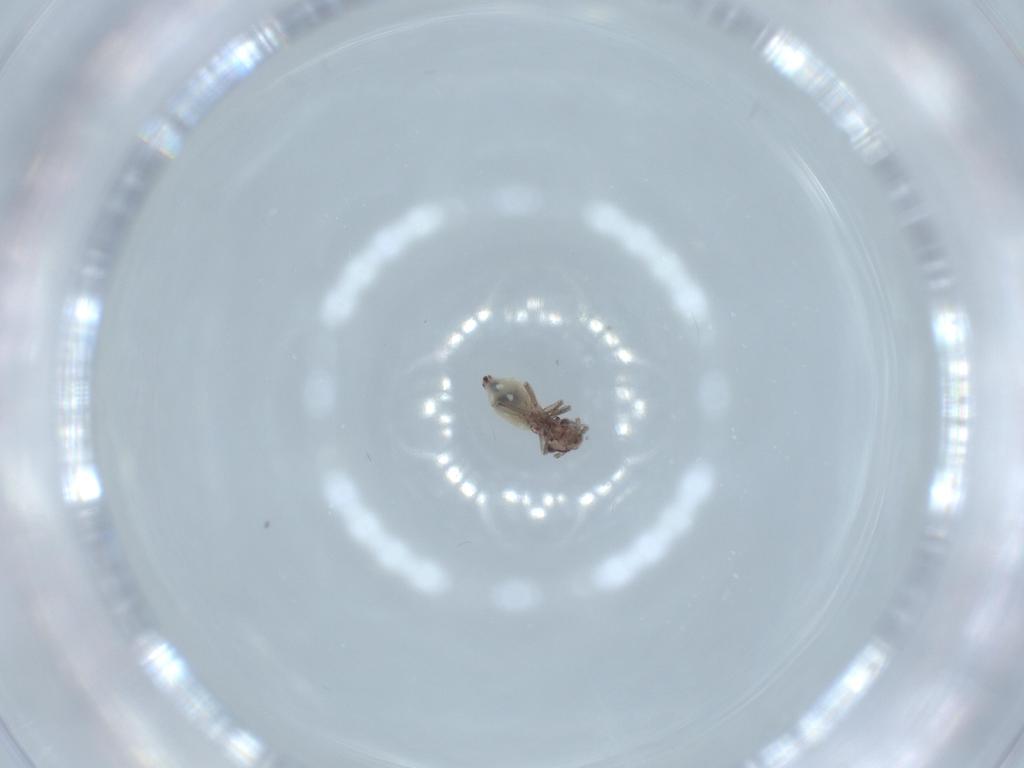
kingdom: Animalia
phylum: Arthropoda
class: Insecta
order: Psocodea
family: Lepidopsocidae
